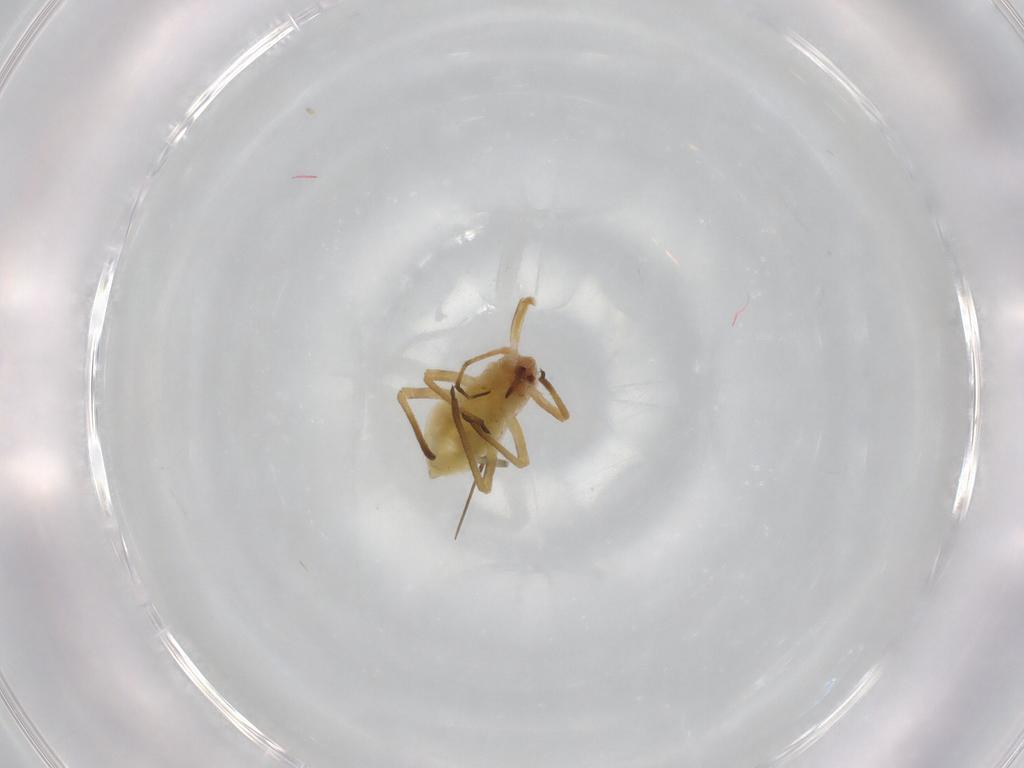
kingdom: Animalia
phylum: Arthropoda
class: Insecta
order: Hemiptera
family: Aphididae
